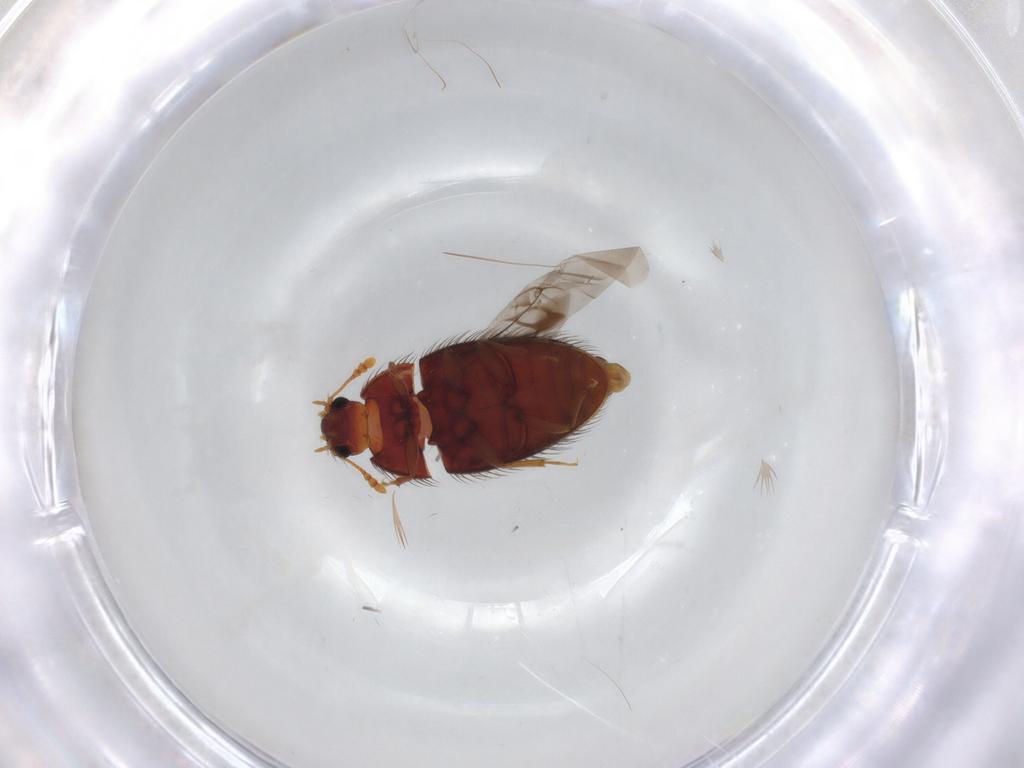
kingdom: Animalia
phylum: Arthropoda
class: Insecta
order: Coleoptera
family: Biphyllidae
